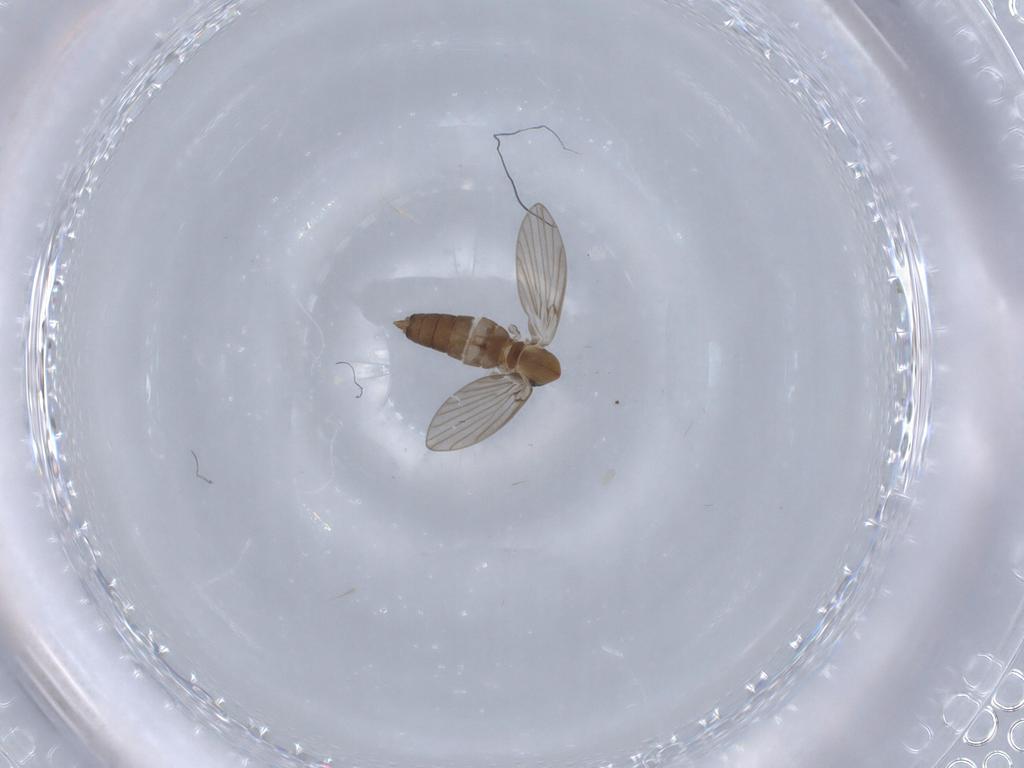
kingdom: Animalia
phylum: Arthropoda
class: Insecta
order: Diptera
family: Psychodidae
